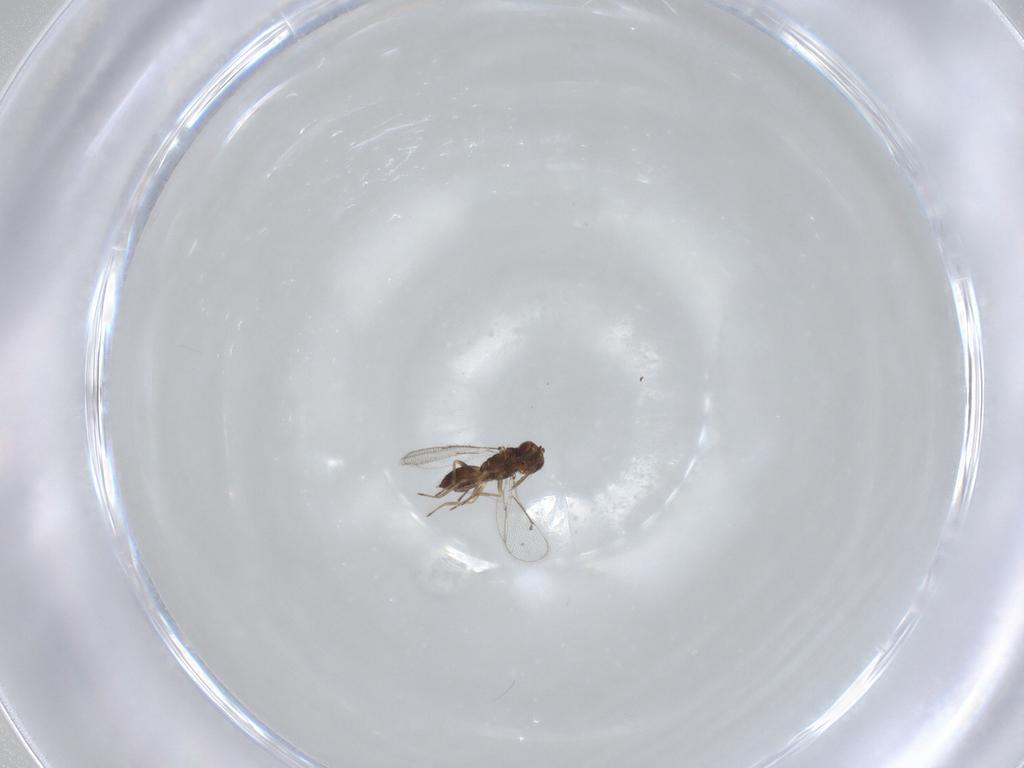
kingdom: Animalia
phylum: Arthropoda
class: Insecta
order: Hymenoptera
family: Eulophidae
